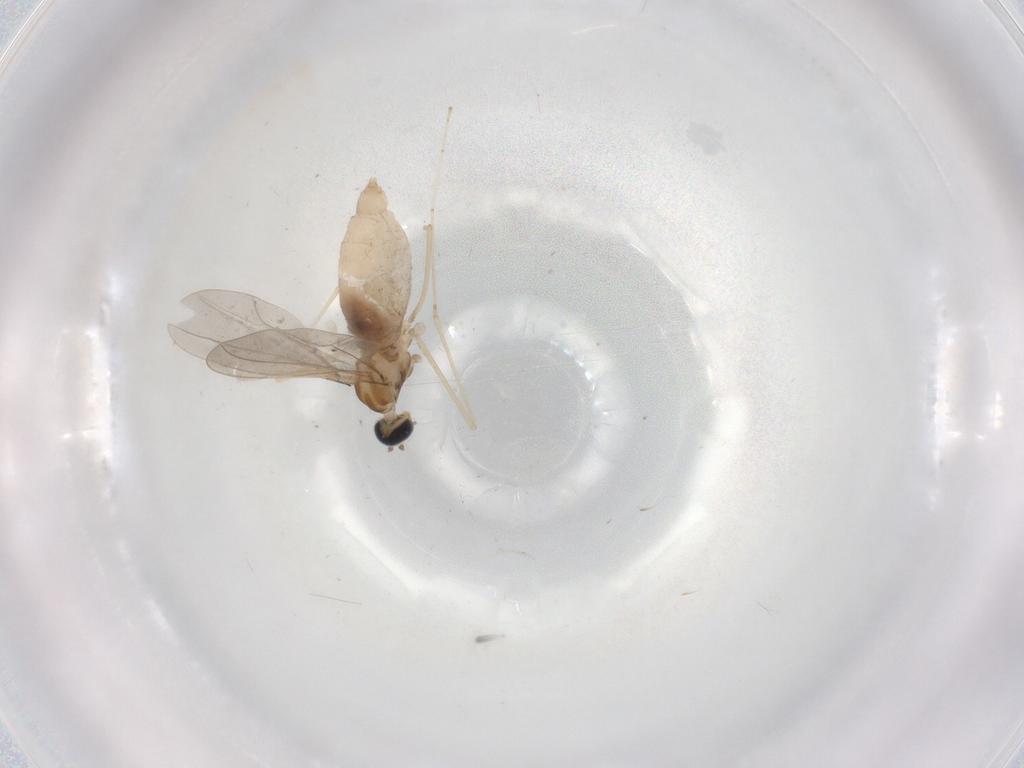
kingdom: Animalia
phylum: Arthropoda
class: Insecta
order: Diptera
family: Cecidomyiidae
